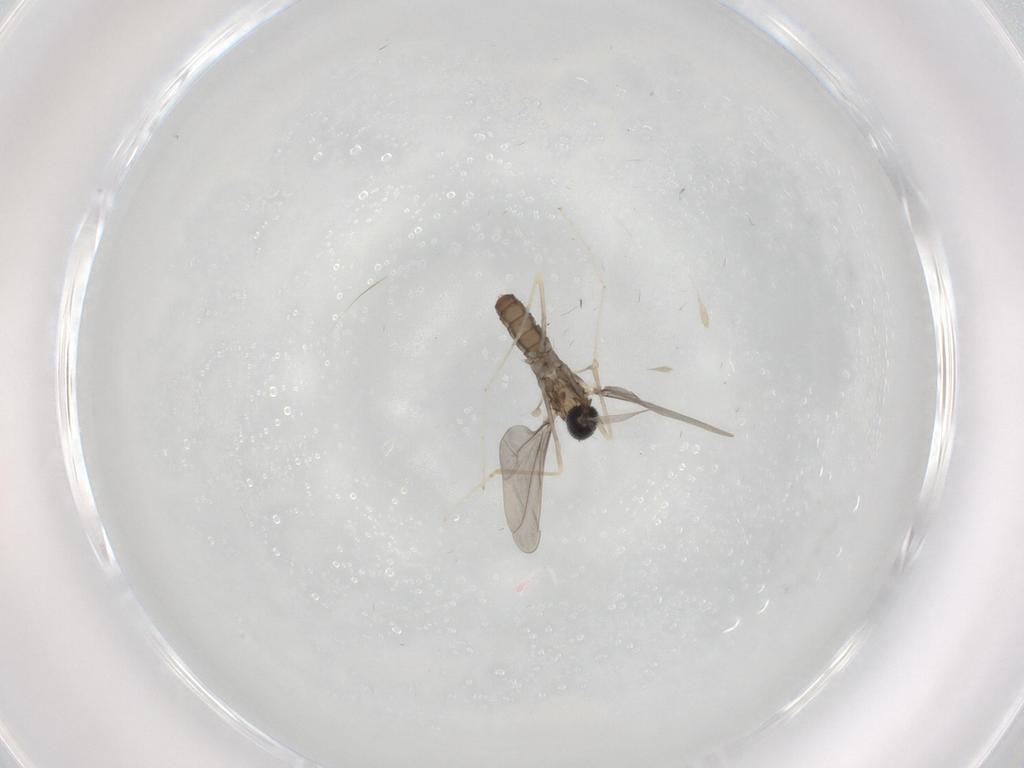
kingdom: Animalia
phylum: Arthropoda
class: Insecta
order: Diptera
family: Cecidomyiidae
